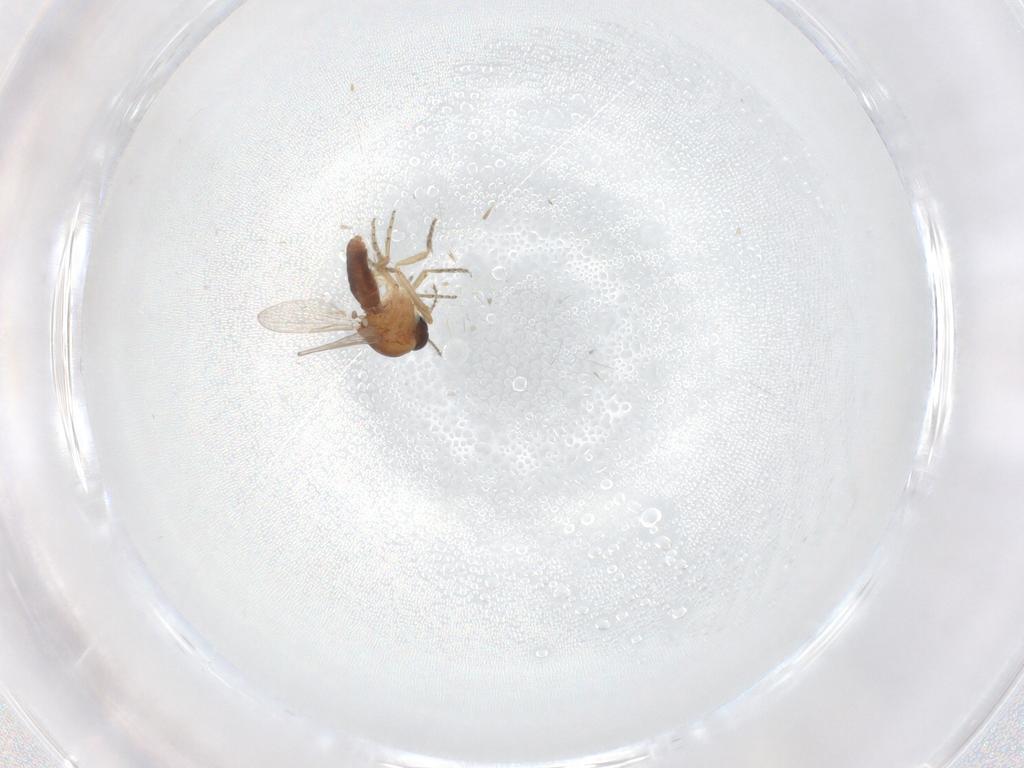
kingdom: Animalia
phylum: Arthropoda
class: Insecta
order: Diptera
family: Ceratopogonidae
